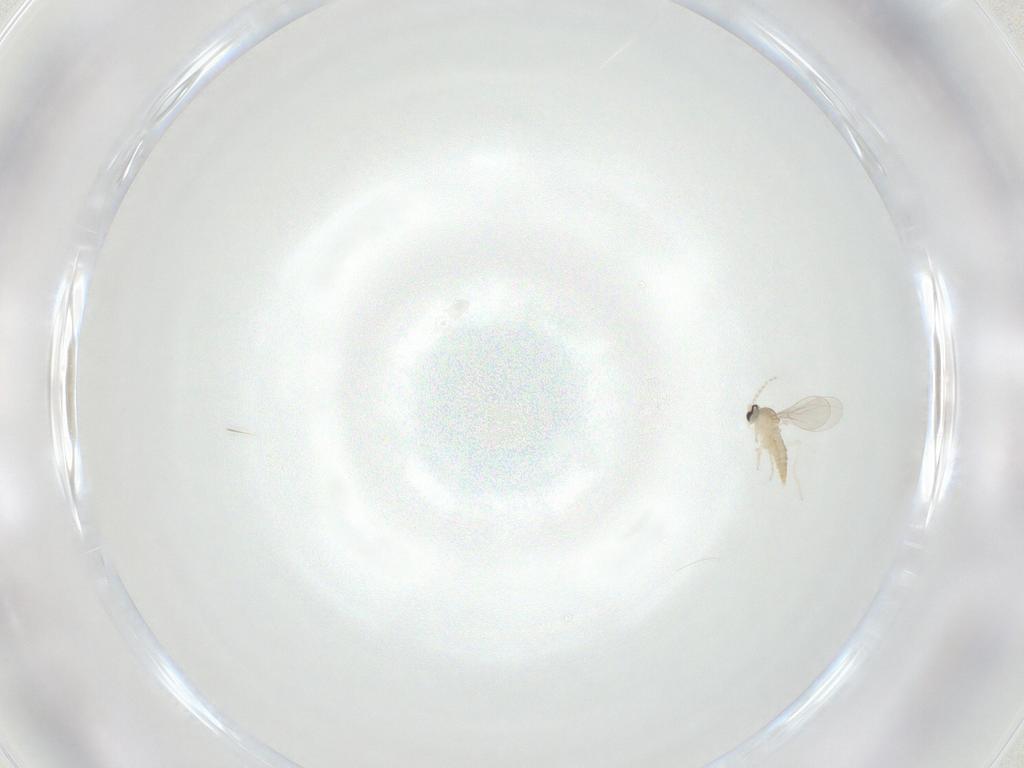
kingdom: Animalia
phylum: Arthropoda
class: Insecta
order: Diptera
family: Cecidomyiidae
